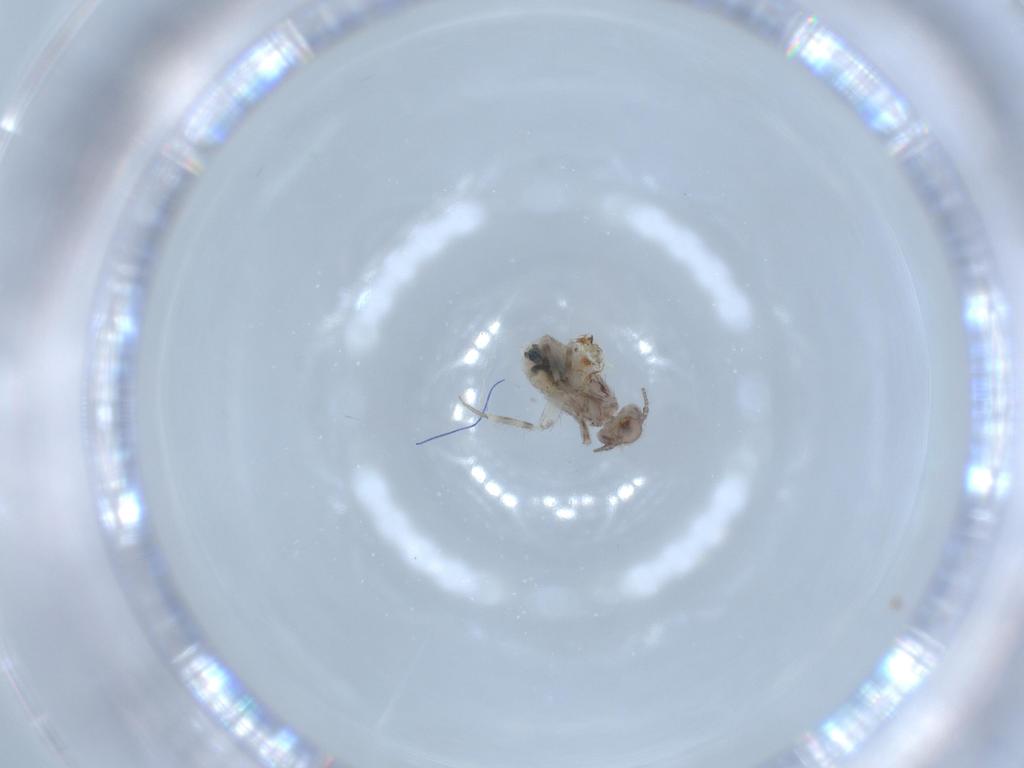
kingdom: Animalia
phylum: Arthropoda
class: Insecta
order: Psocodea
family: Lepidopsocidae
